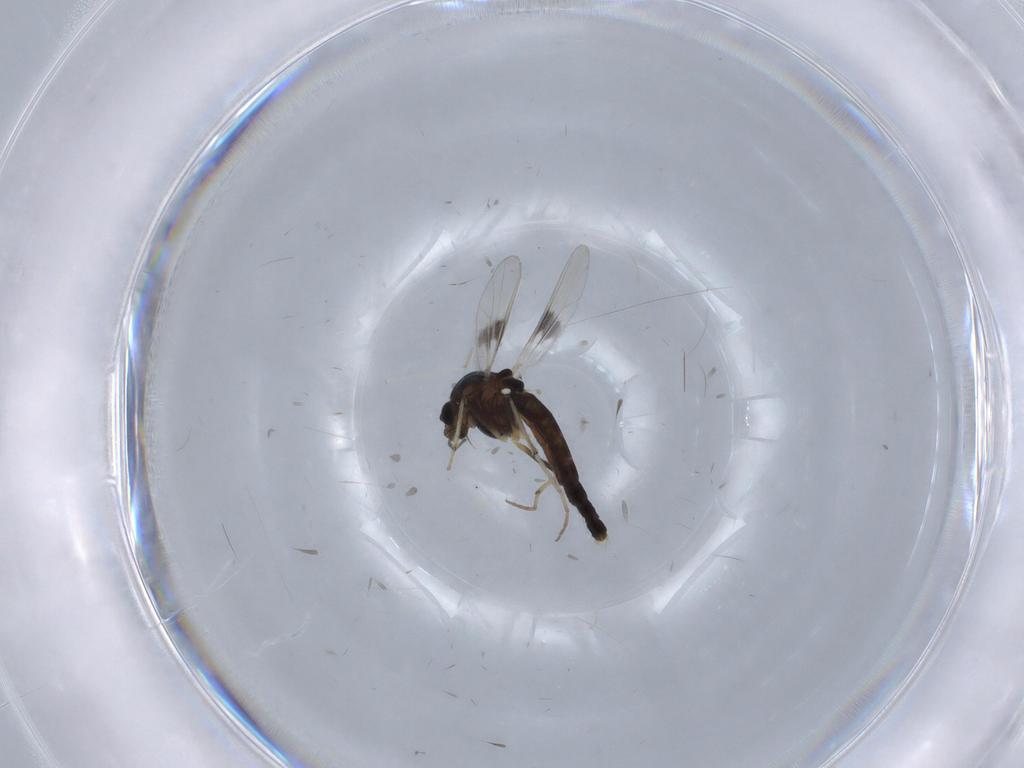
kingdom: Animalia
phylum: Arthropoda
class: Insecta
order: Diptera
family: Chironomidae
